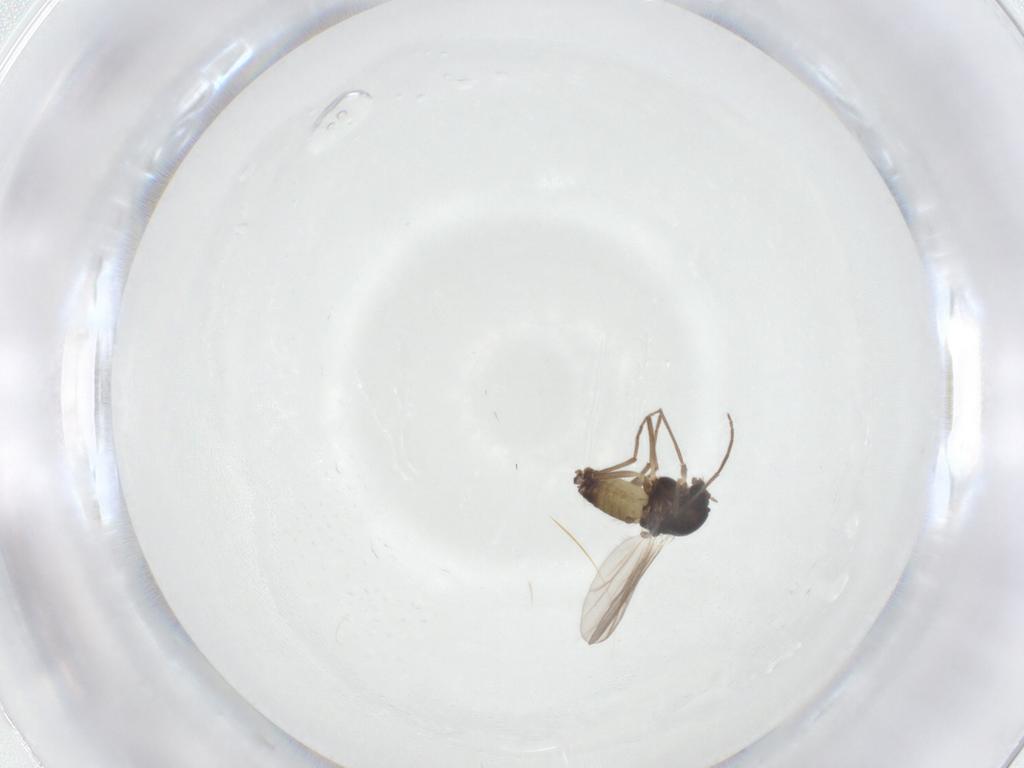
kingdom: Animalia
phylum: Arthropoda
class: Insecta
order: Diptera
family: Chironomidae
